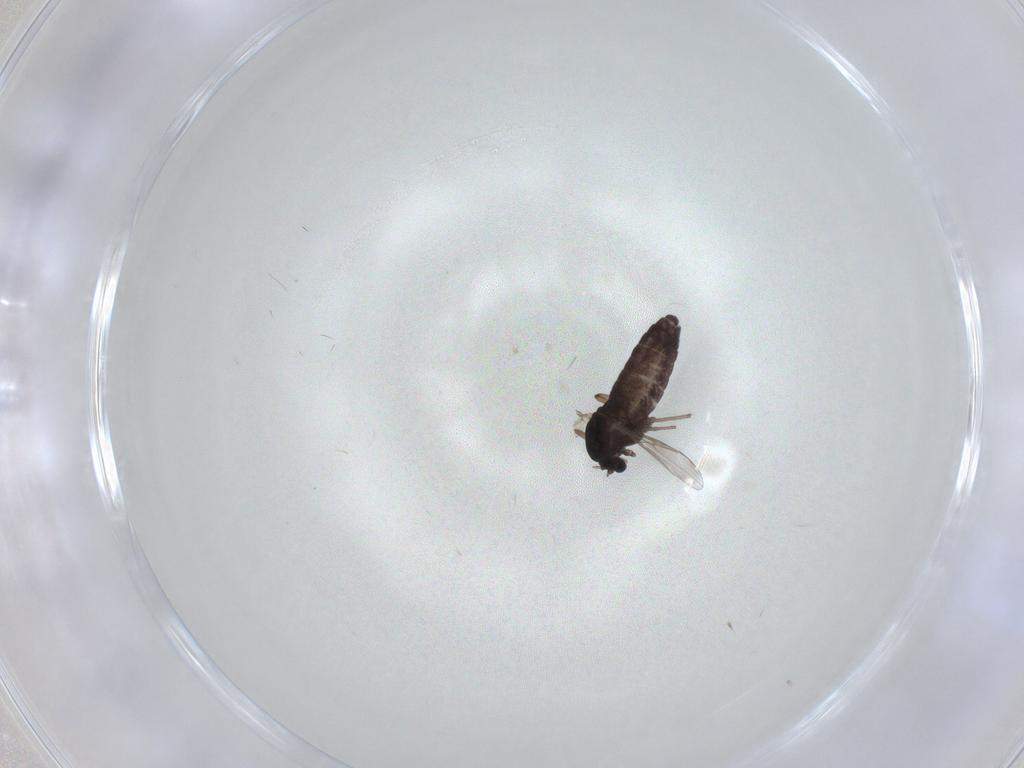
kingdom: Animalia
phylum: Arthropoda
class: Insecta
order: Diptera
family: Chironomidae
